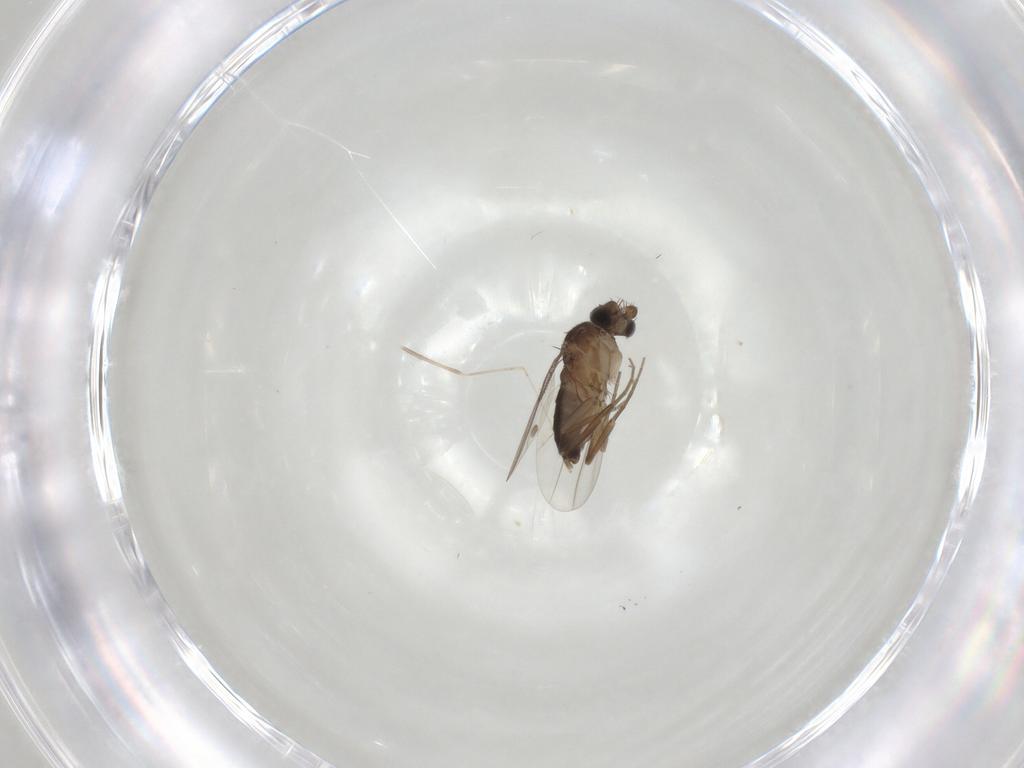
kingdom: Animalia
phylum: Arthropoda
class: Insecta
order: Diptera
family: Phoridae
